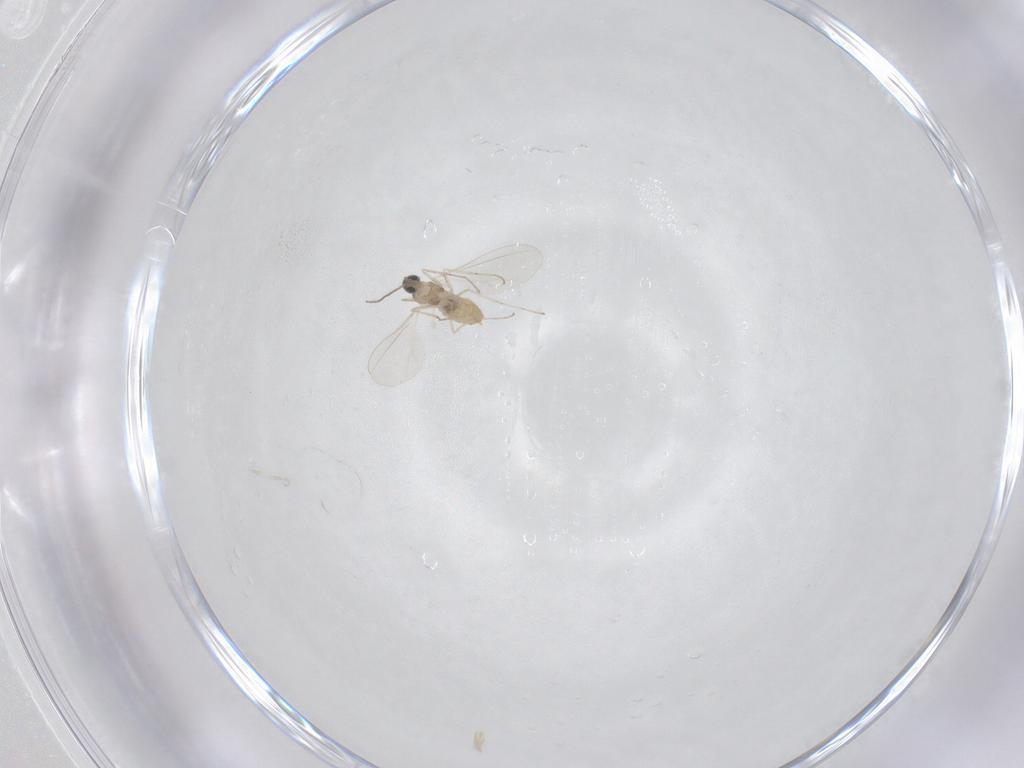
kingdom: Animalia
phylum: Arthropoda
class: Insecta
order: Diptera
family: Cecidomyiidae
